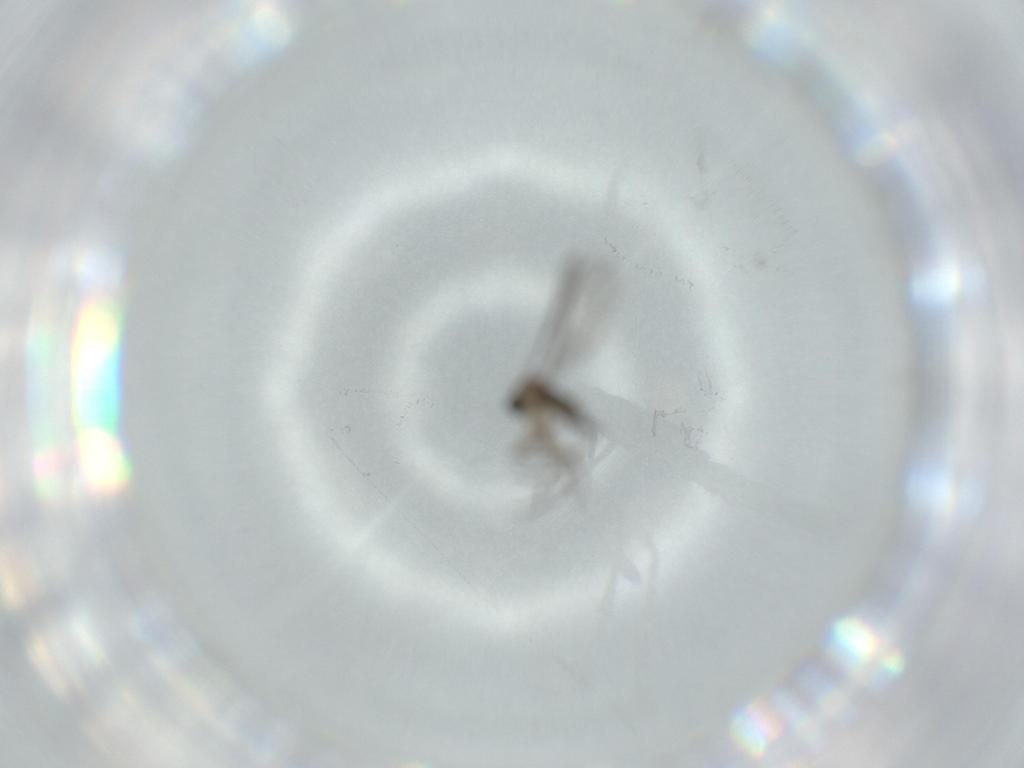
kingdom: Animalia
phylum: Arthropoda
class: Insecta
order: Diptera
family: Sciaridae
